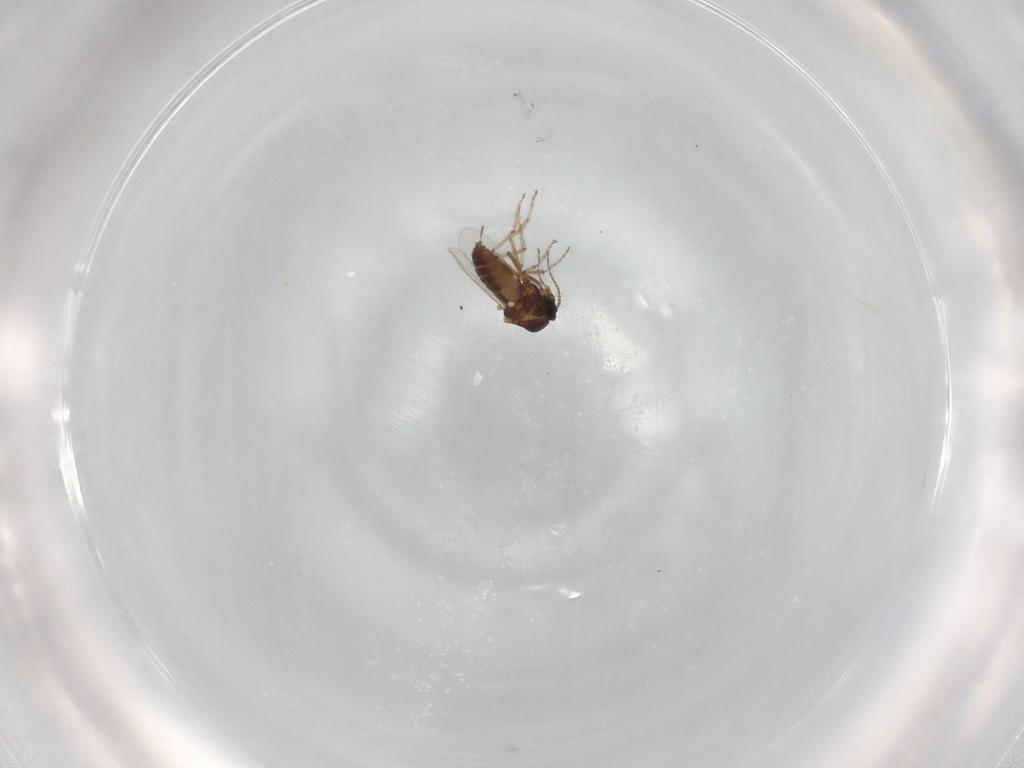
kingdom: Animalia
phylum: Arthropoda
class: Insecta
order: Diptera
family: Ceratopogonidae
